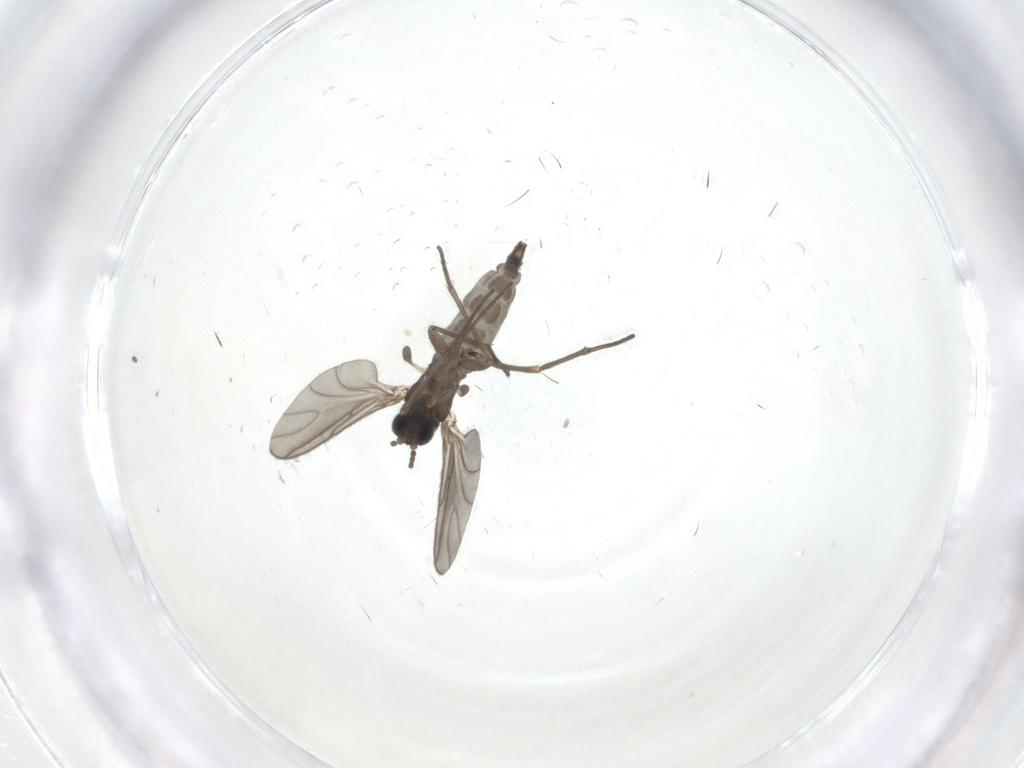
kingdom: Animalia
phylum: Arthropoda
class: Insecta
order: Diptera
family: Sciaridae
